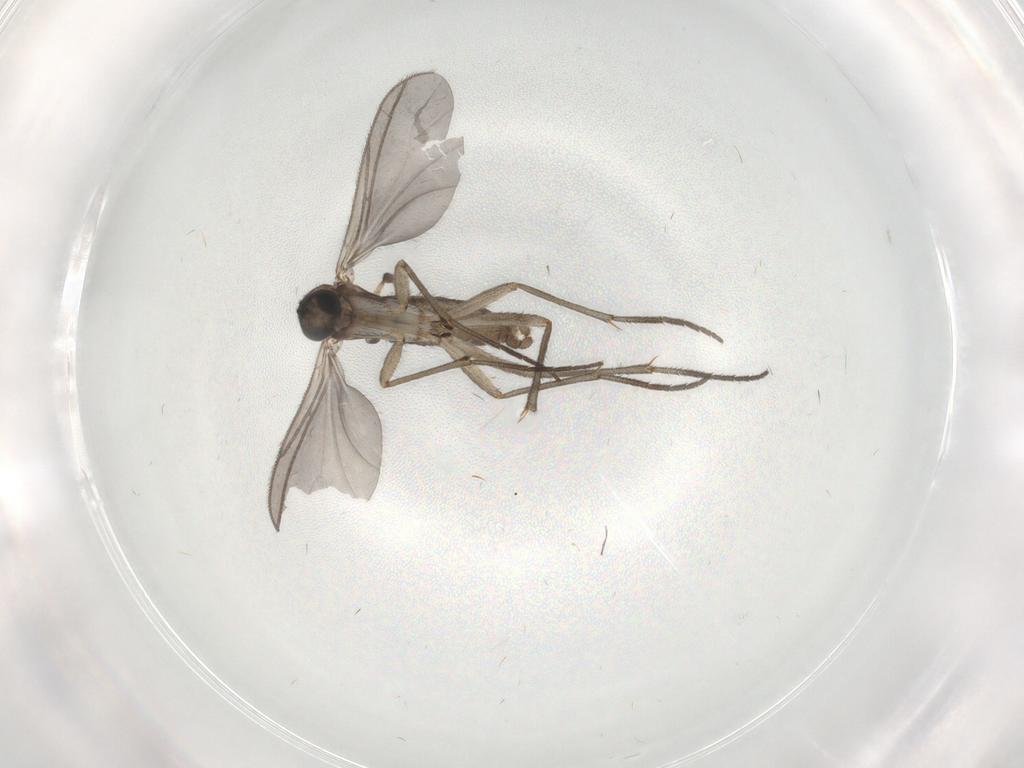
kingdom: Animalia
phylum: Arthropoda
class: Insecta
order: Diptera
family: Sciaridae
